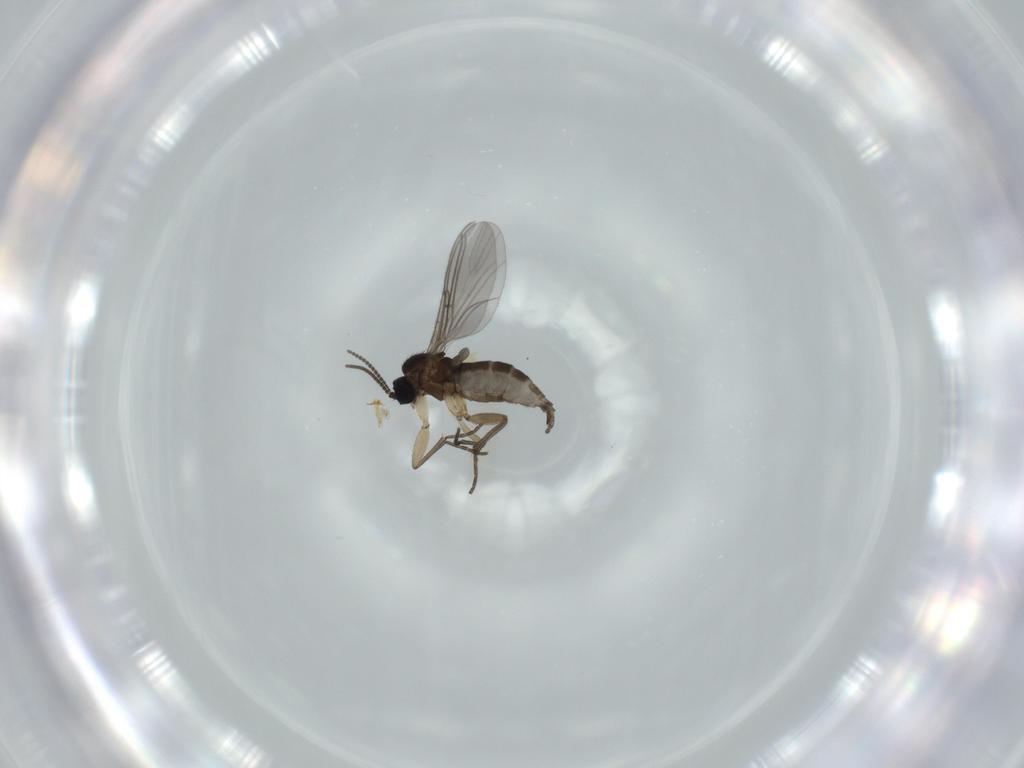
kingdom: Animalia
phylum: Arthropoda
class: Insecta
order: Diptera
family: Sciaridae
